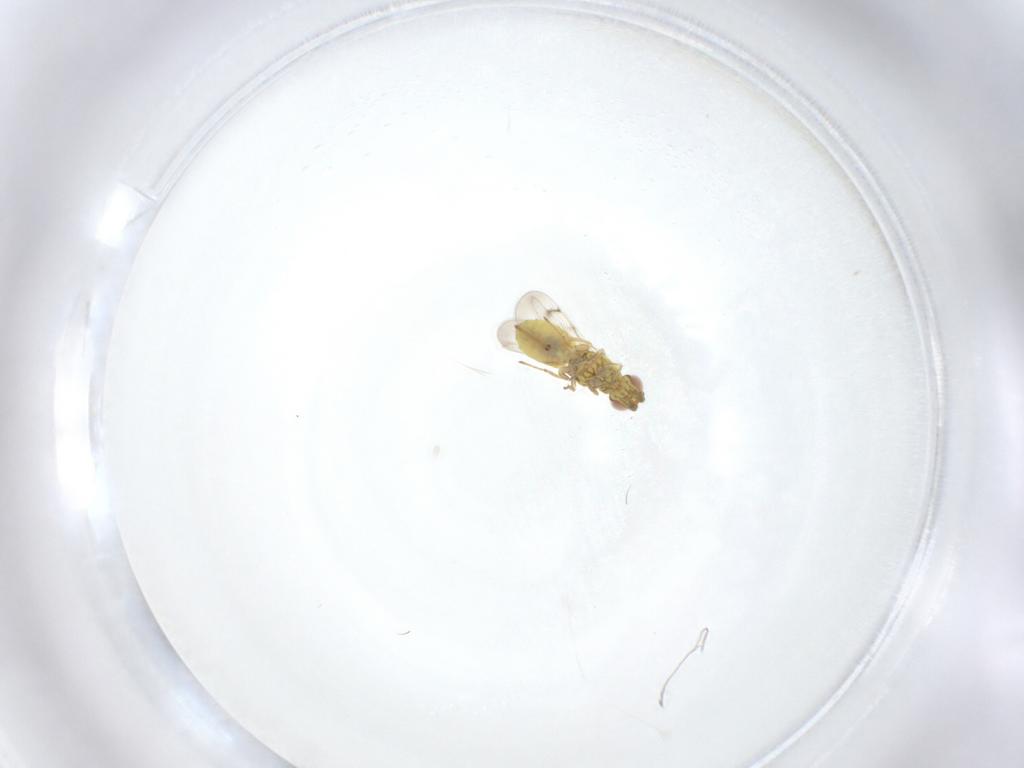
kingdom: Animalia
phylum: Arthropoda
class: Insecta
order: Hymenoptera
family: Eulophidae
